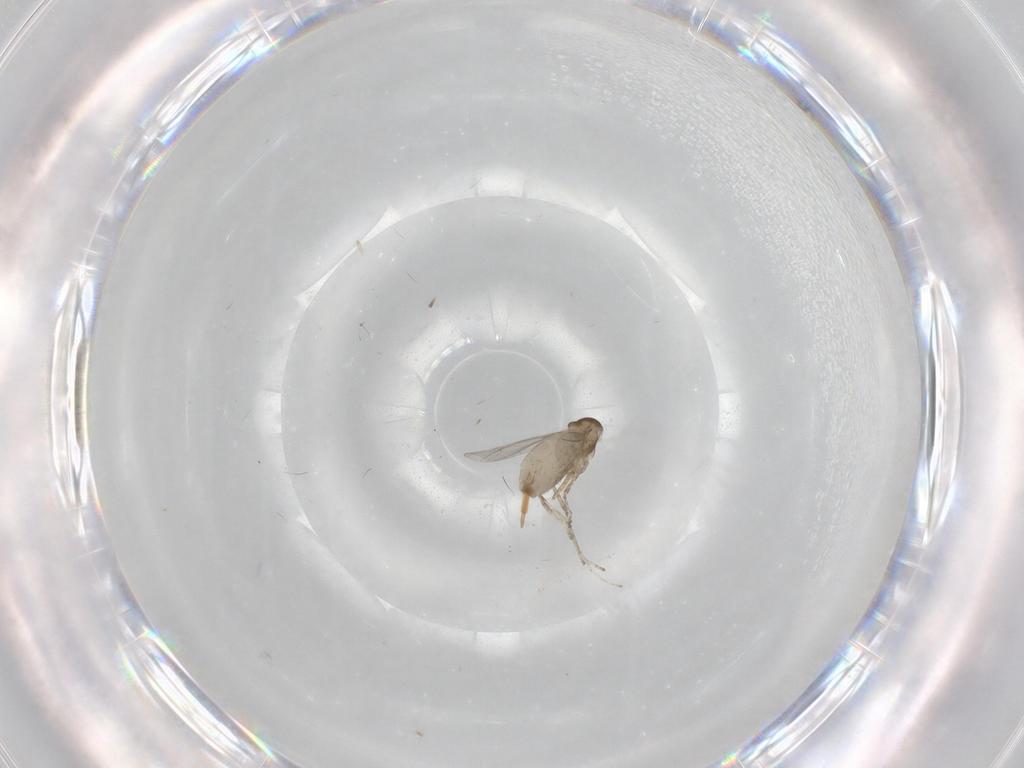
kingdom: Animalia
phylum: Arthropoda
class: Insecta
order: Diptera
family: Cecidomyiidae
